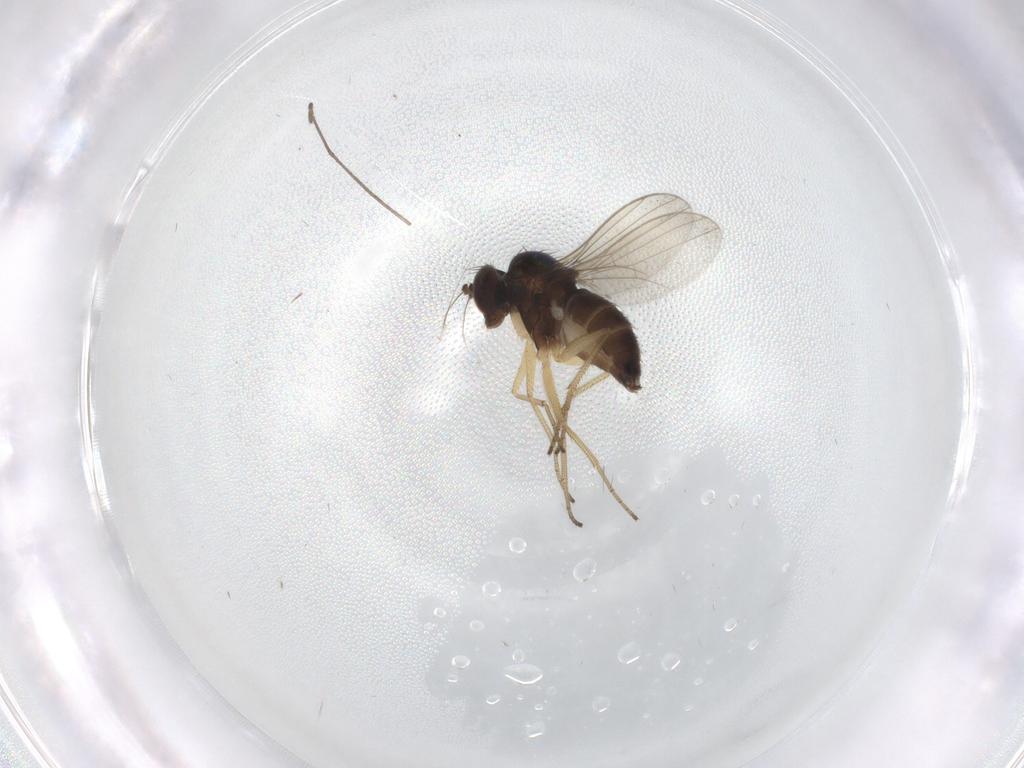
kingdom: Animalia
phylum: Arthropoda
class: Insecta
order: Diptera
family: Dolichopodidae
